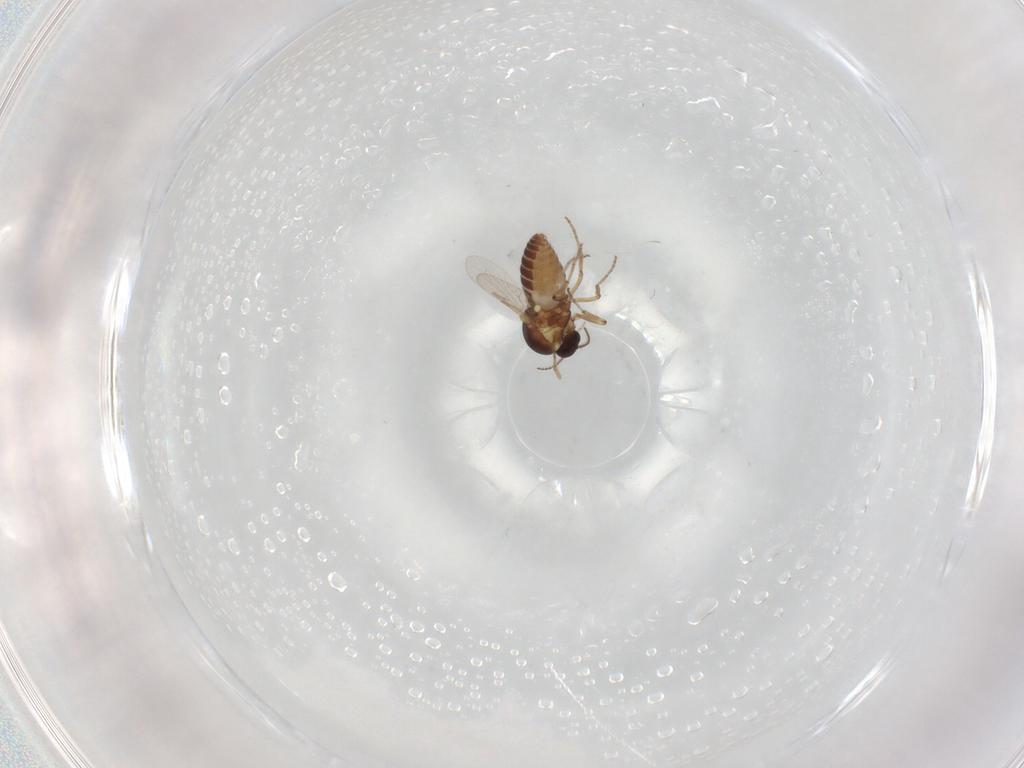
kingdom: Animalia
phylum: Arthropoda
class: Insecta
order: Diptera
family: Ceratopogonidae
